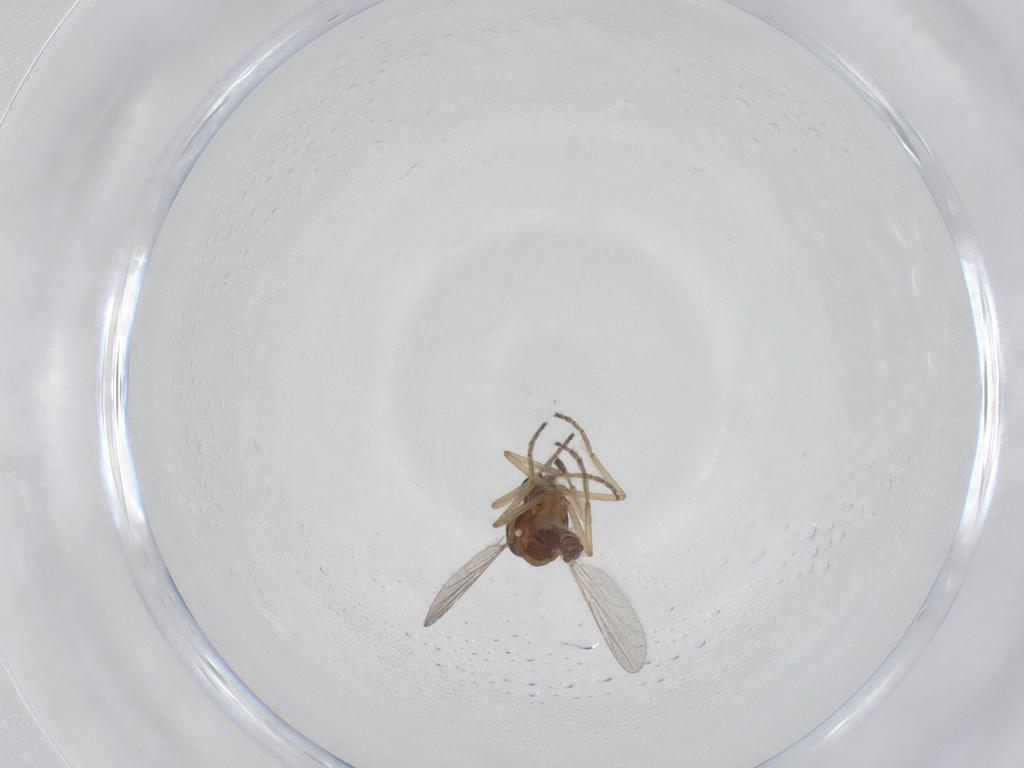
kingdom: Animalia
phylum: Arthropoda
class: Insecta
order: Diptera
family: Ceratopogonidae
